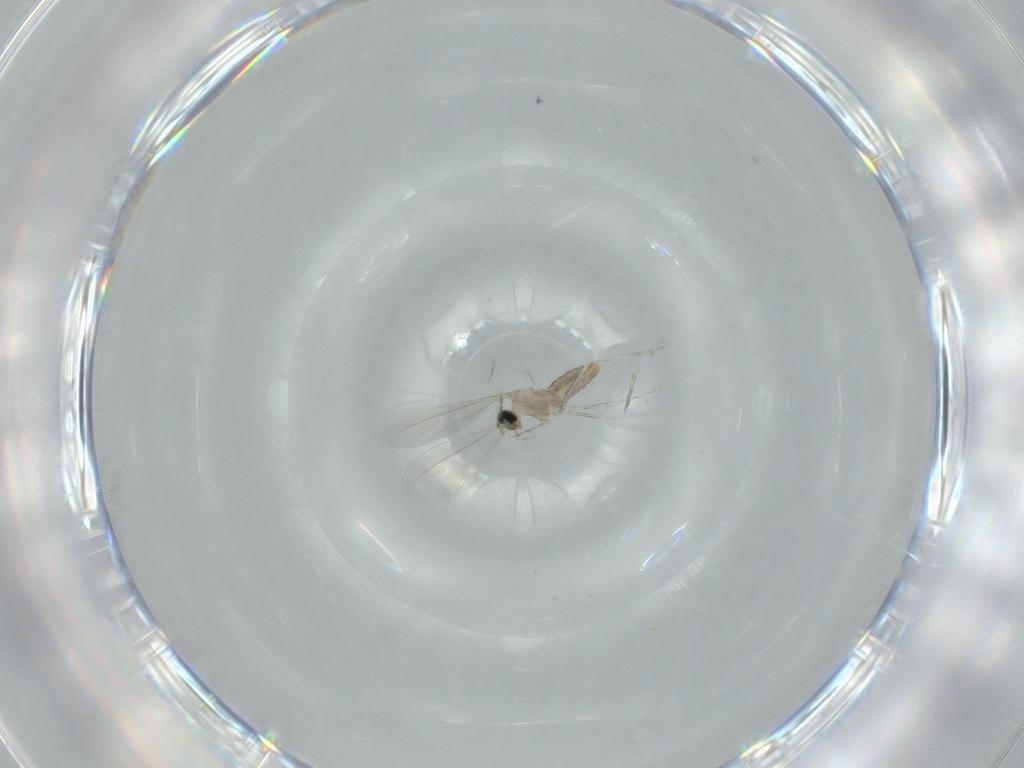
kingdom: Animalia
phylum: Arthropoda
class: Insecta
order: Diptera
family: Cecidomyiidae
